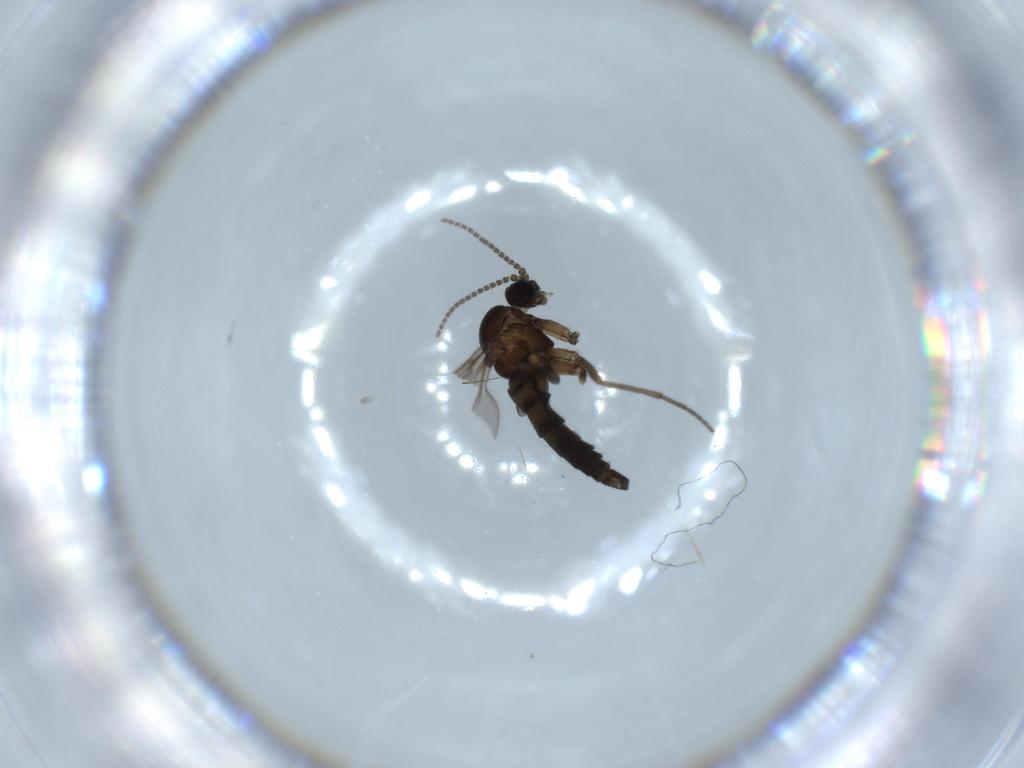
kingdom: Animalia
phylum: Arthropoda
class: Insecta
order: Diptera
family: Sciaridae
